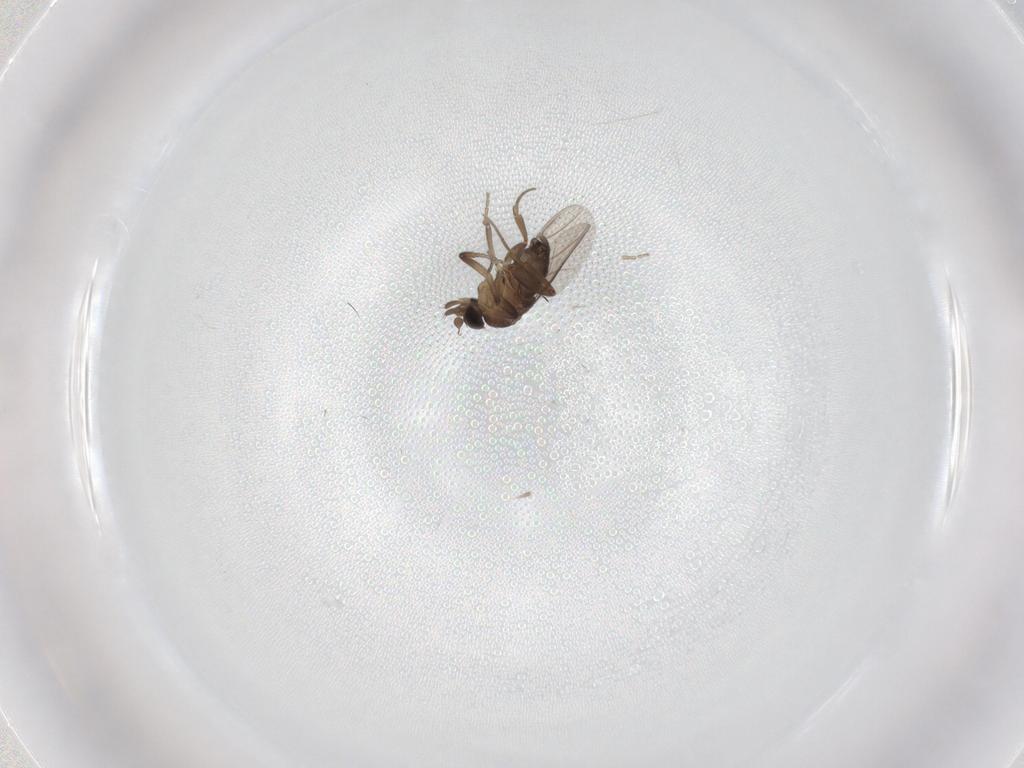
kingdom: Animalia
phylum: Arthropoda
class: Insecta
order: Diptera
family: Phoridae
